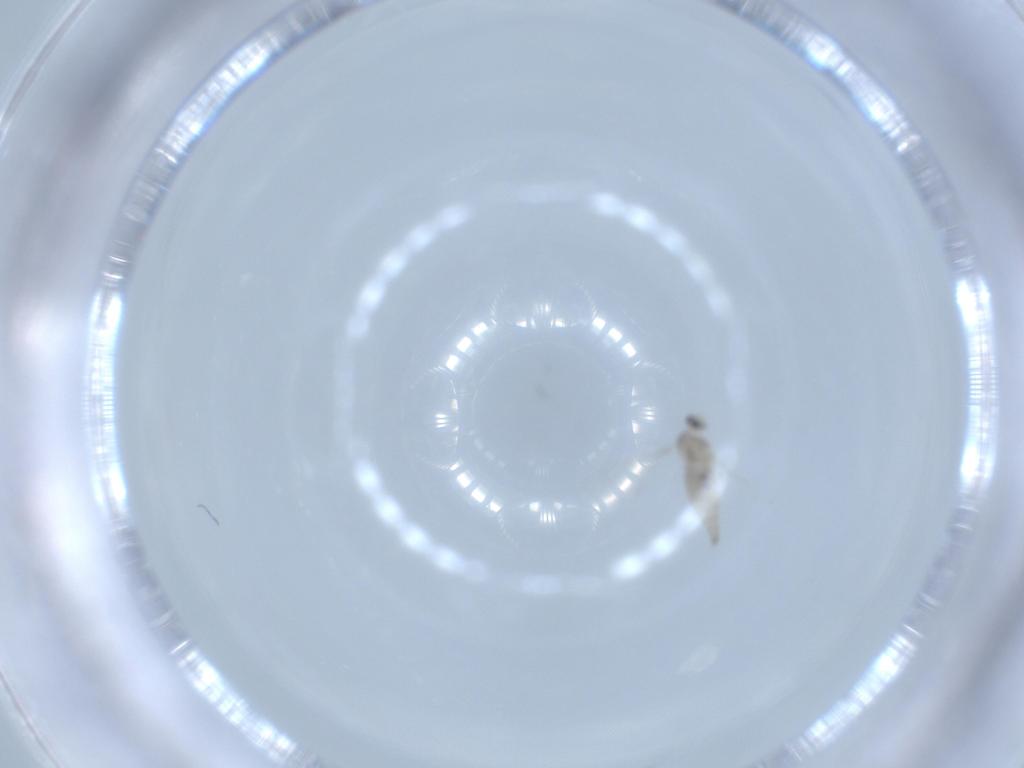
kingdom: Animalia
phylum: Arthropoda
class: Insecta
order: Diptera
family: Cecidomyiidae
